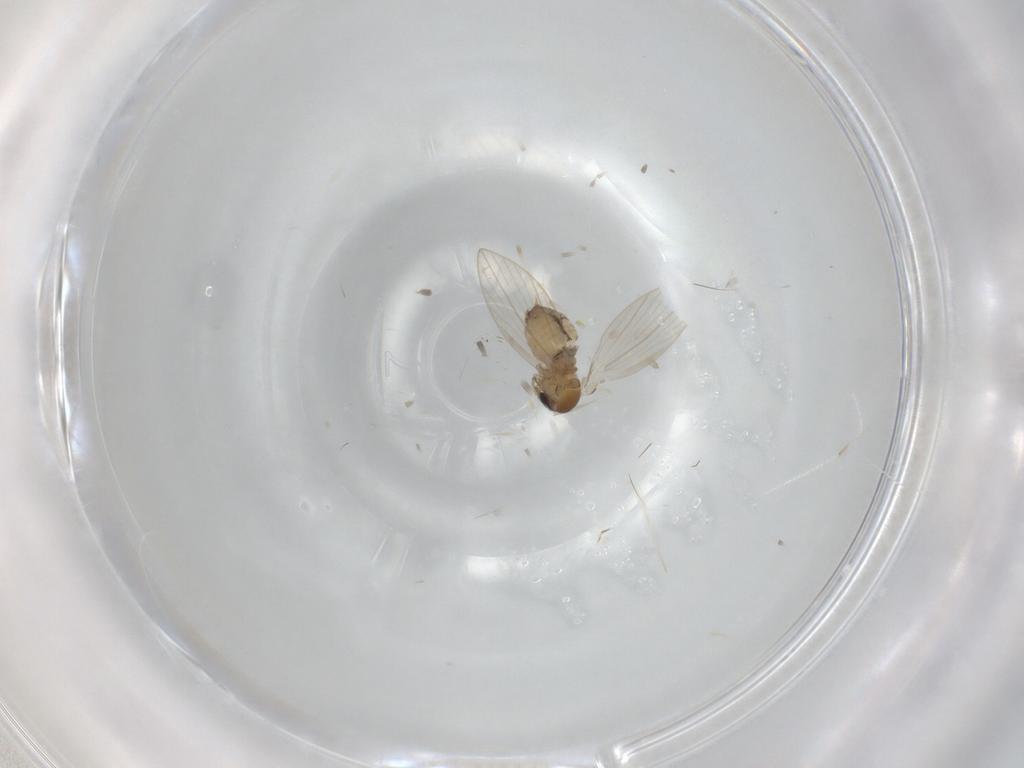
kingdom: Animalia
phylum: Arthropoda
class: Insecta
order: Diptera
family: Psychodidae
